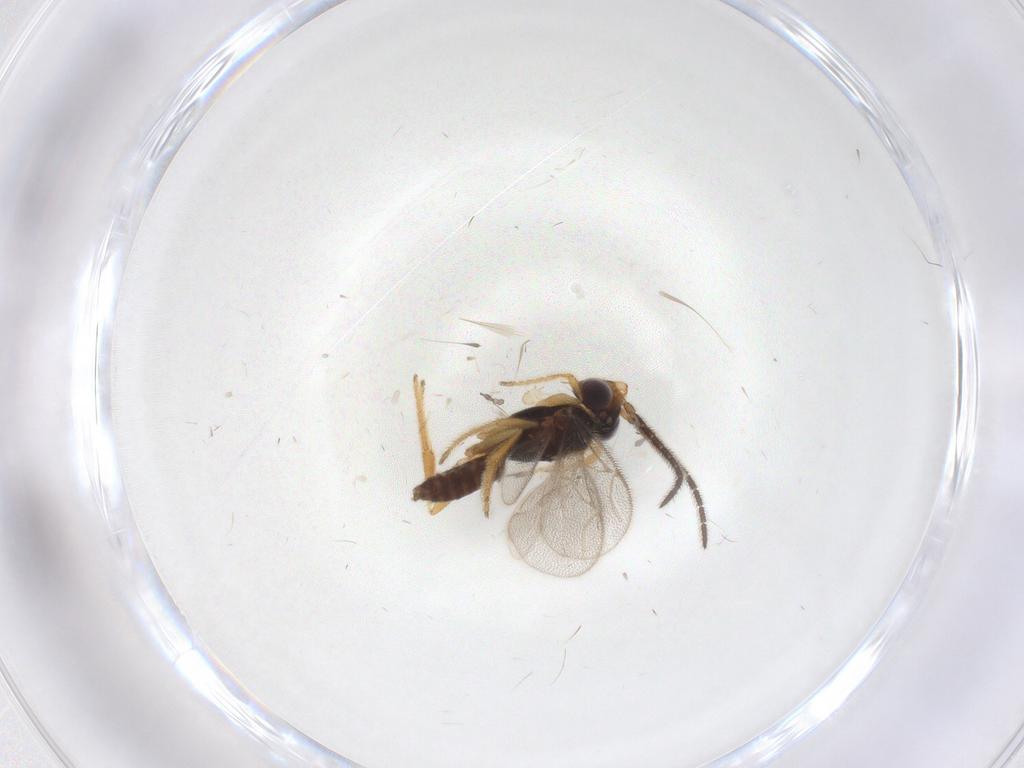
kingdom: Animalia
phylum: Arthropoda
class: Insecta
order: Hymenoptera
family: Dryinidae
